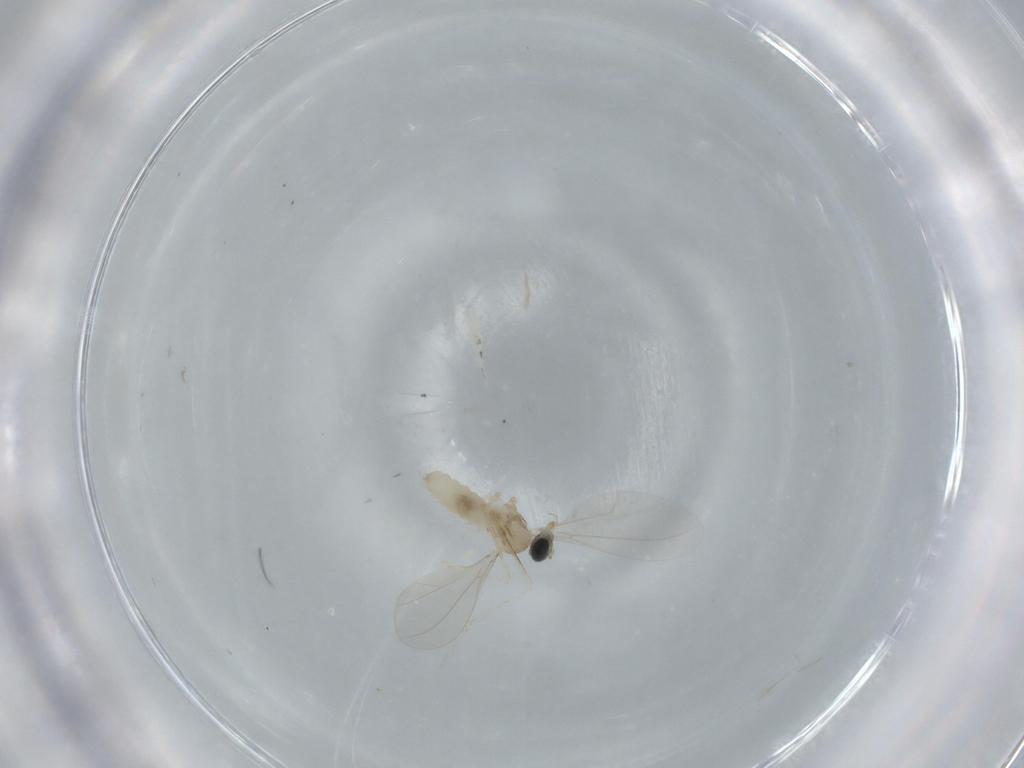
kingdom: Animalia
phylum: Arthropoda
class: Insecta
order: Diptera
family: Cecidomyiidae
